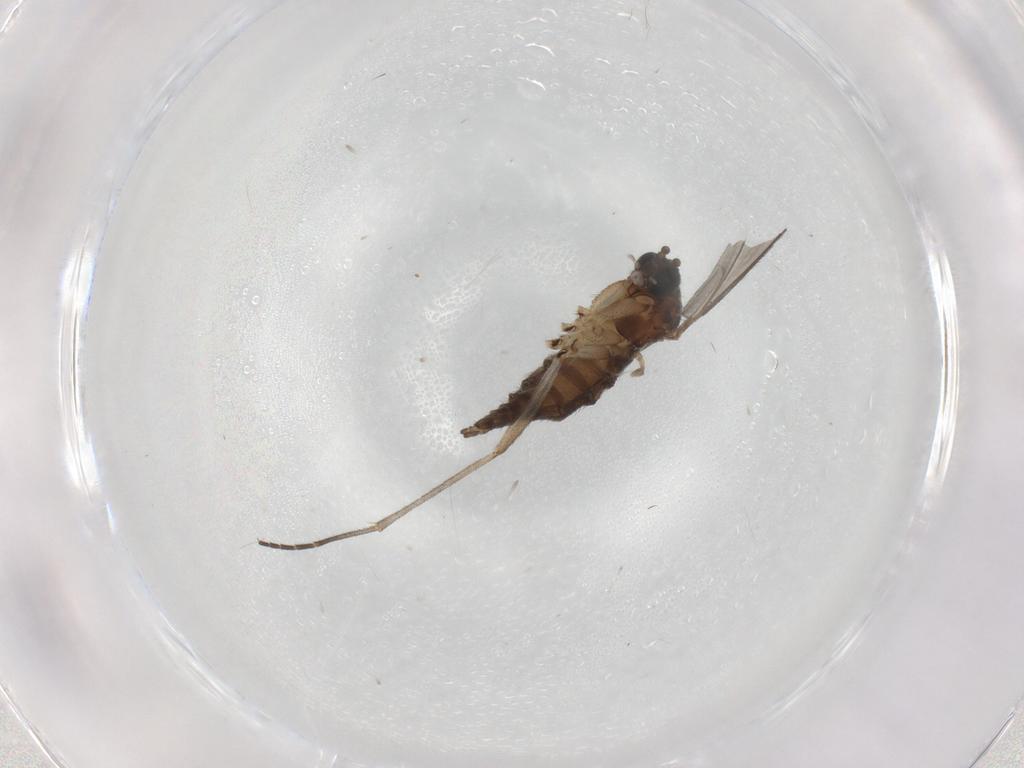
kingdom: Animalia
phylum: Arthropoda
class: Insecta
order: Diptera
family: Sciaridae
